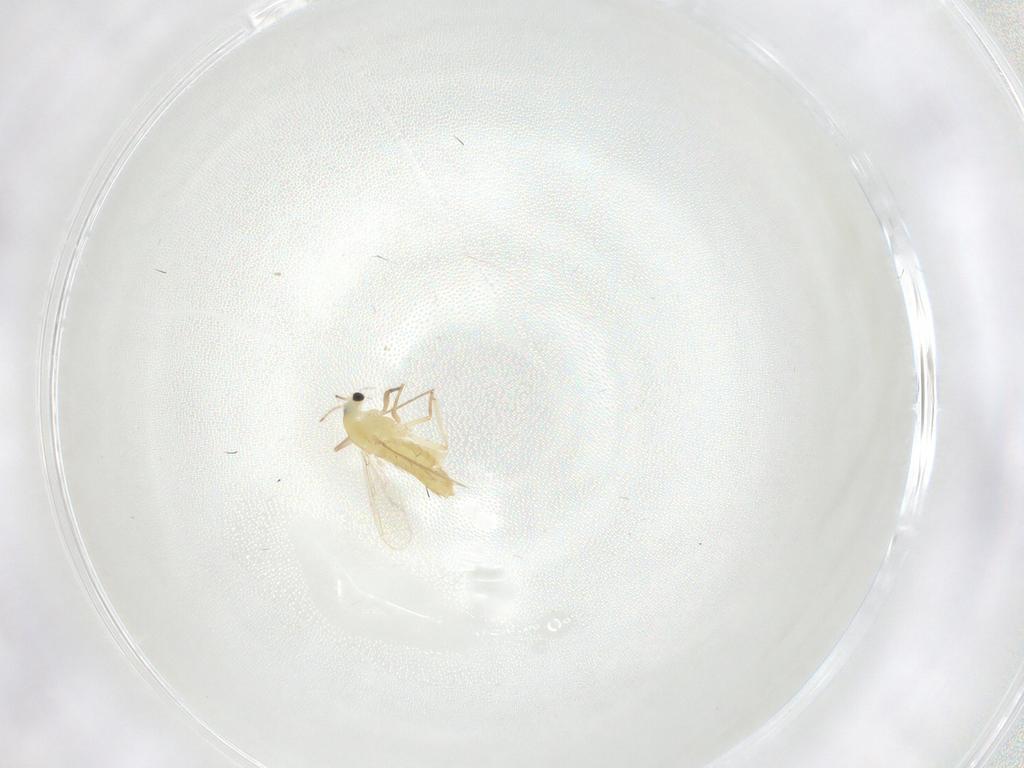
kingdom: Animalia
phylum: Arthropoda
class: Insecta
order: Diptera
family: Chironomidae
